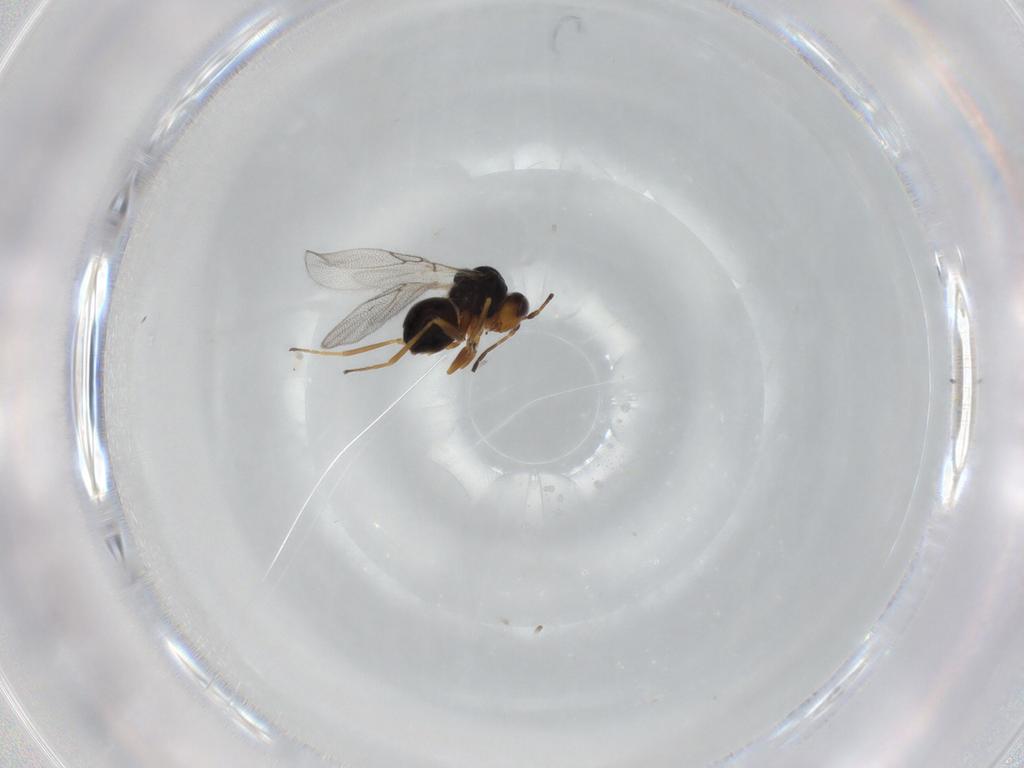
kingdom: Animalia
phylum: Arthropoda
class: Insecta
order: Hymenoptera
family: Figitidae
